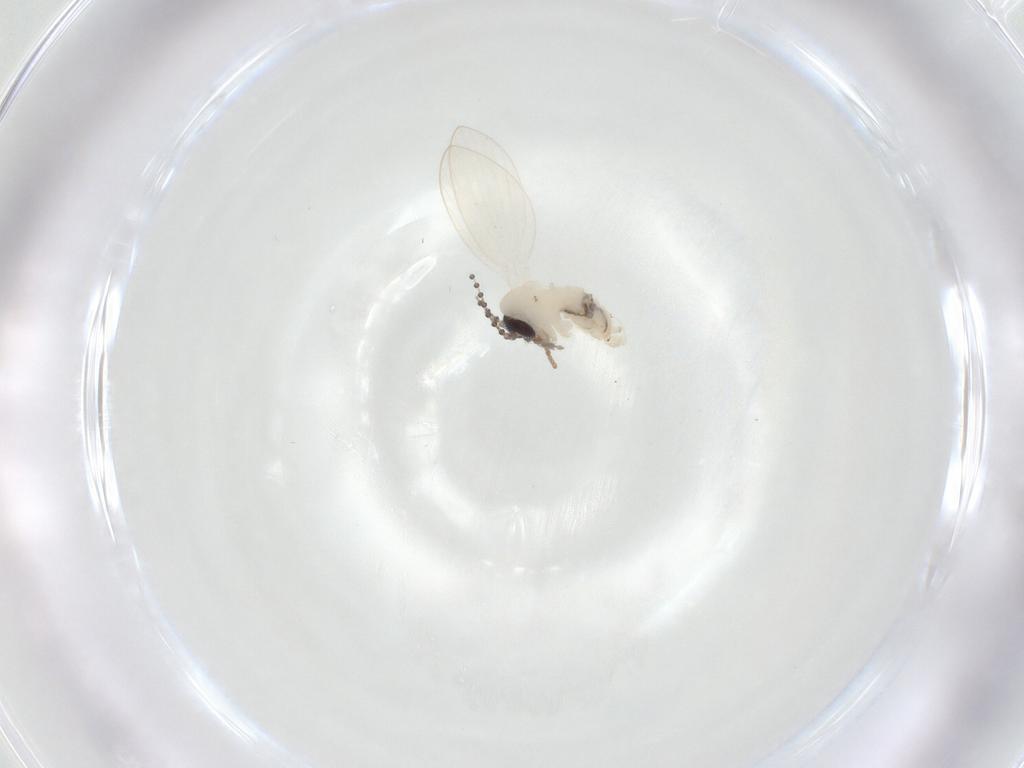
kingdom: Animalia
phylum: Arthropoda
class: Insecta
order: Diptera
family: Psychodidae
